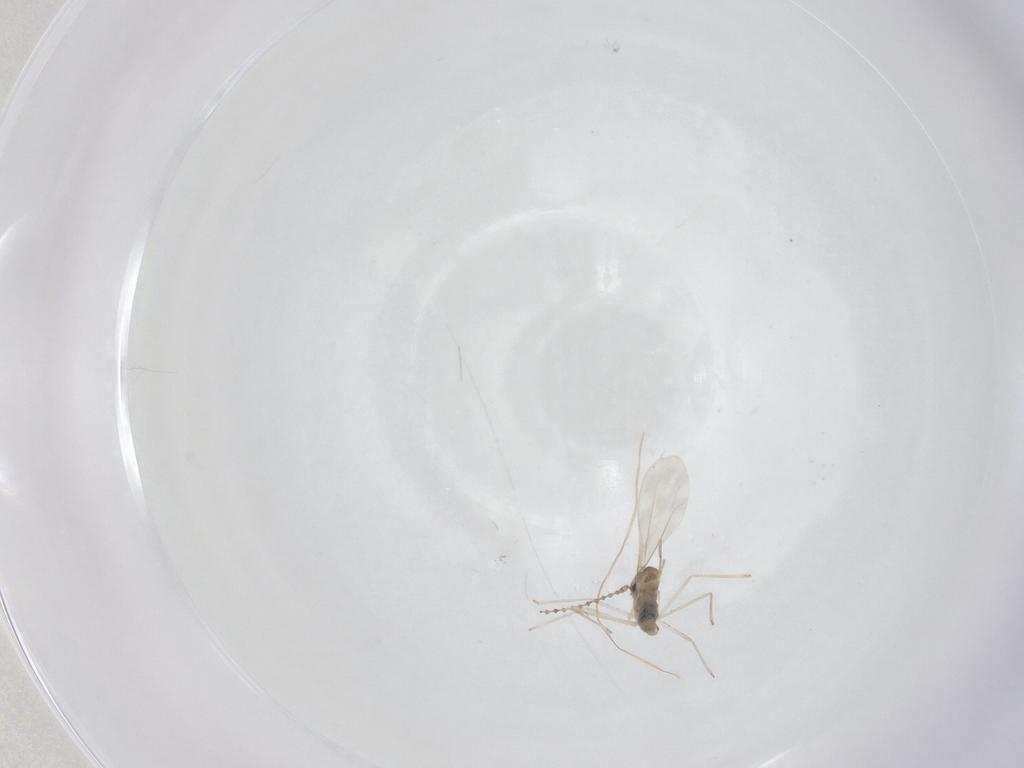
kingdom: Animalia
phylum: Arthropoda
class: Insecta
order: Diptera
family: Cecidomyiidae
